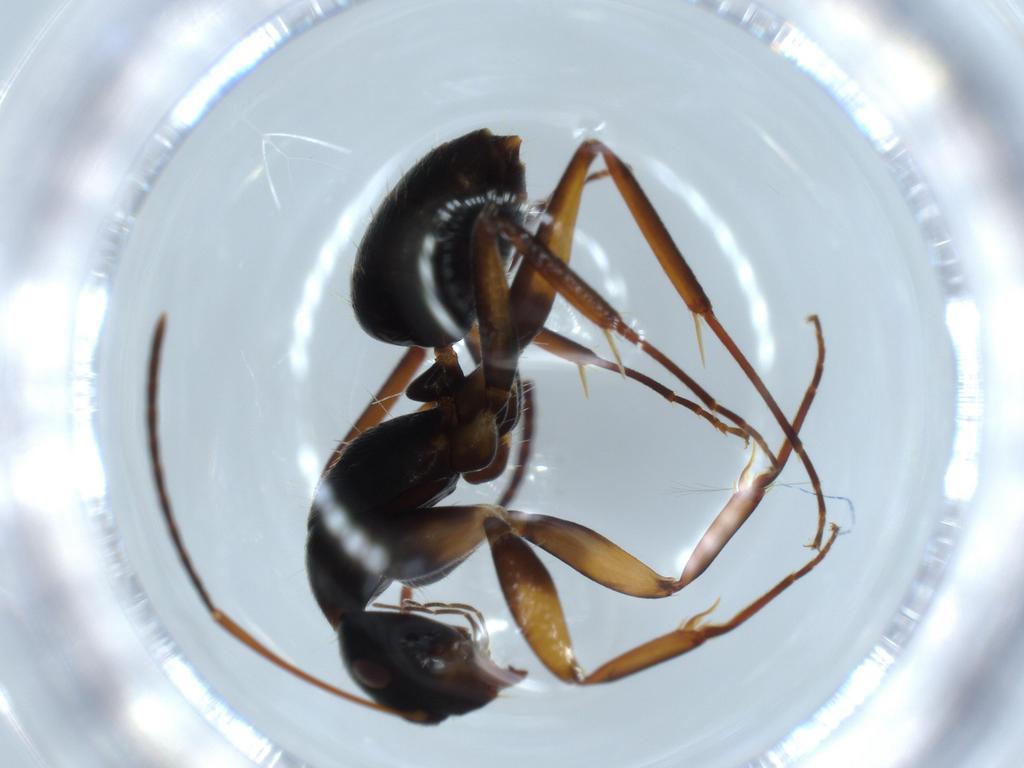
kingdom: Animalia
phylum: Arthropoda
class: Insecta
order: Hymenoptera
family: Formicidae
